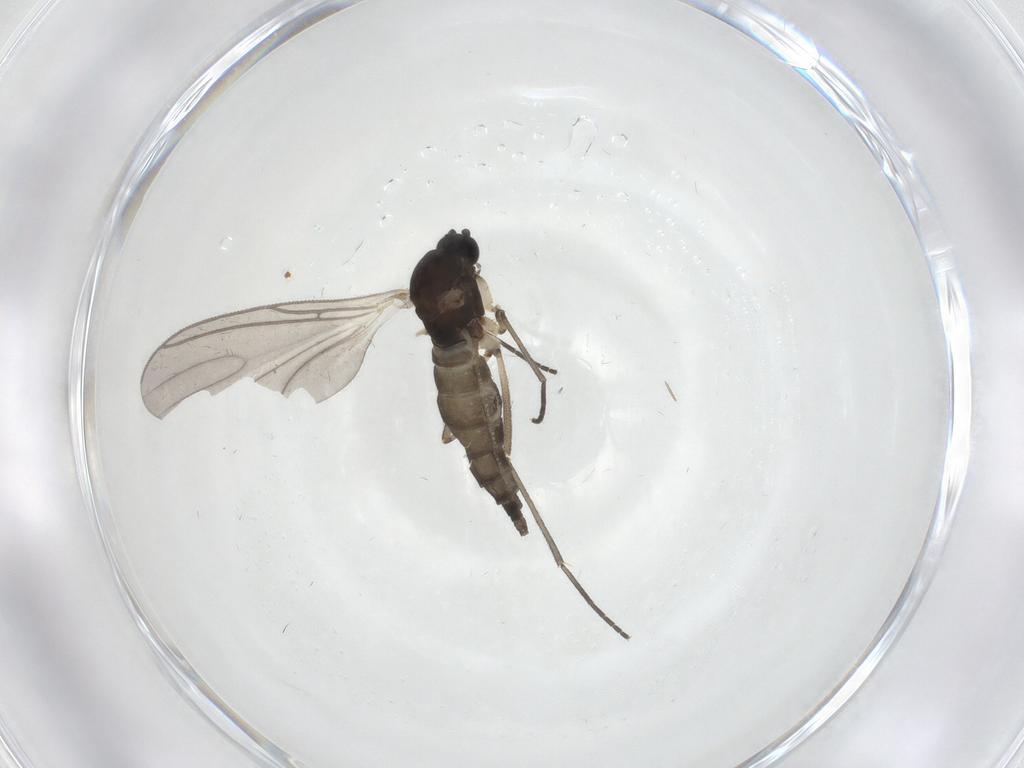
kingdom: Animalia
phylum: Arthropoda
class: Insecta
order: Diptera
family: Sciaridae
